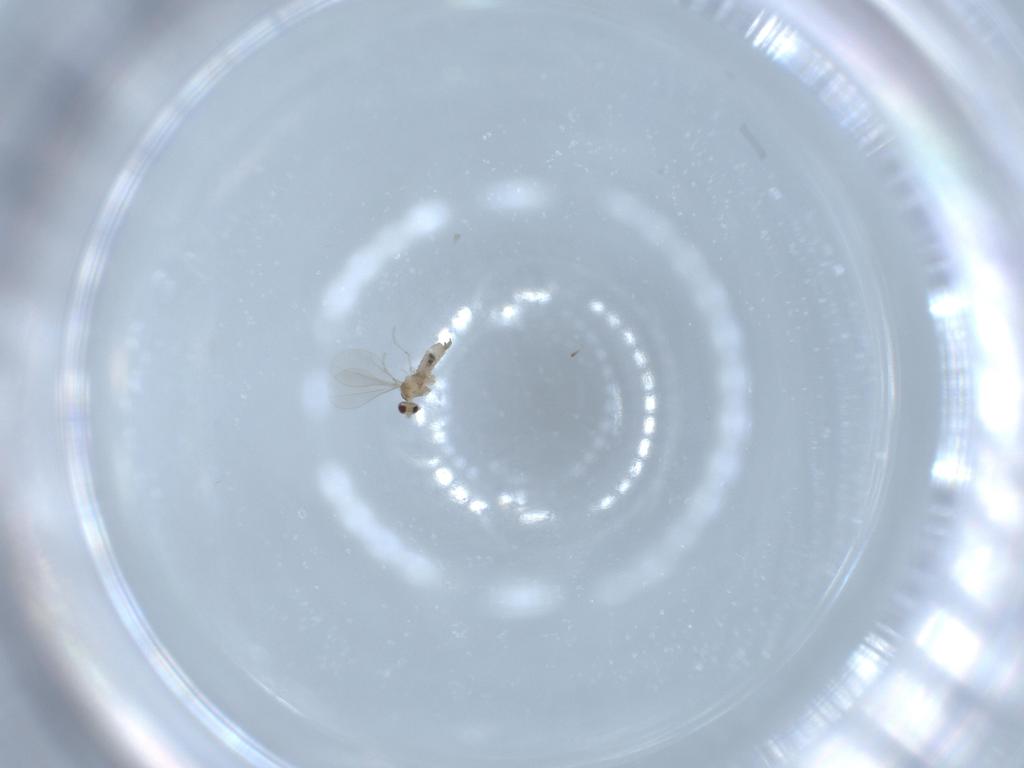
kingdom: Animalia
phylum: Arthropoda
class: Insecta
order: Diptera
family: Cecidomyiidae
